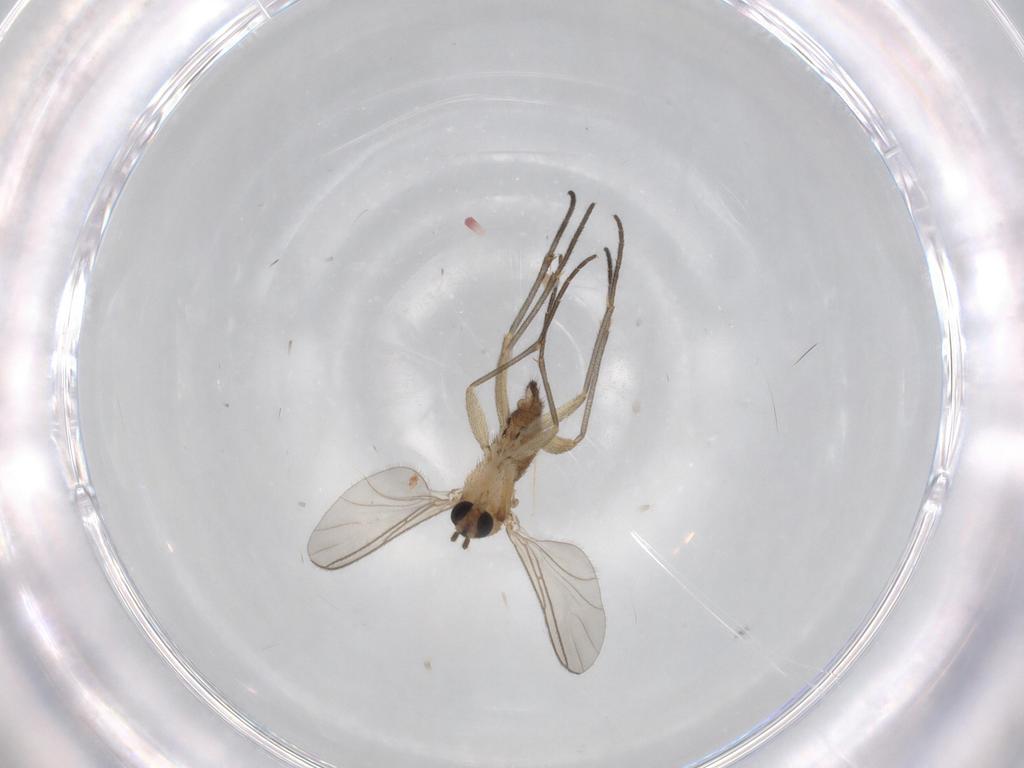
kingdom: Animalia
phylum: Arthropoda
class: Insecta
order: Diptera
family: Sciaridae
